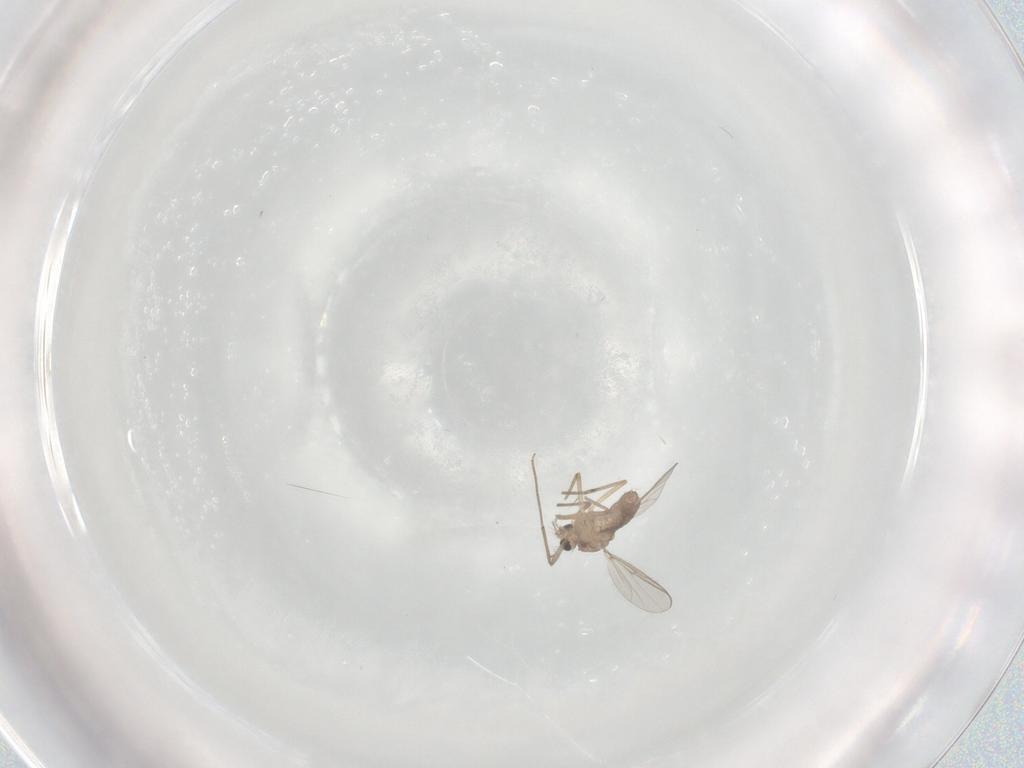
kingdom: Animalia
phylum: Arthropoda
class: Insecta
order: Diptera
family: Chironomidae
